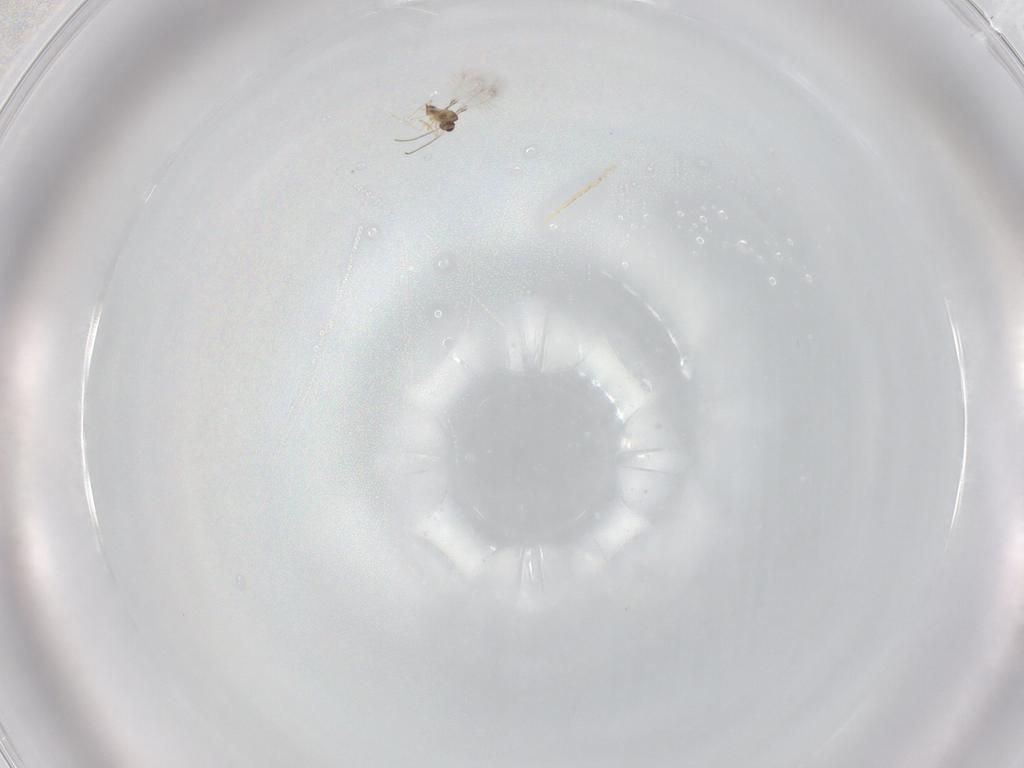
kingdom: Animalia
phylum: Arthropoda
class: Insecta
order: Hymenoptera
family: Mymaridae
